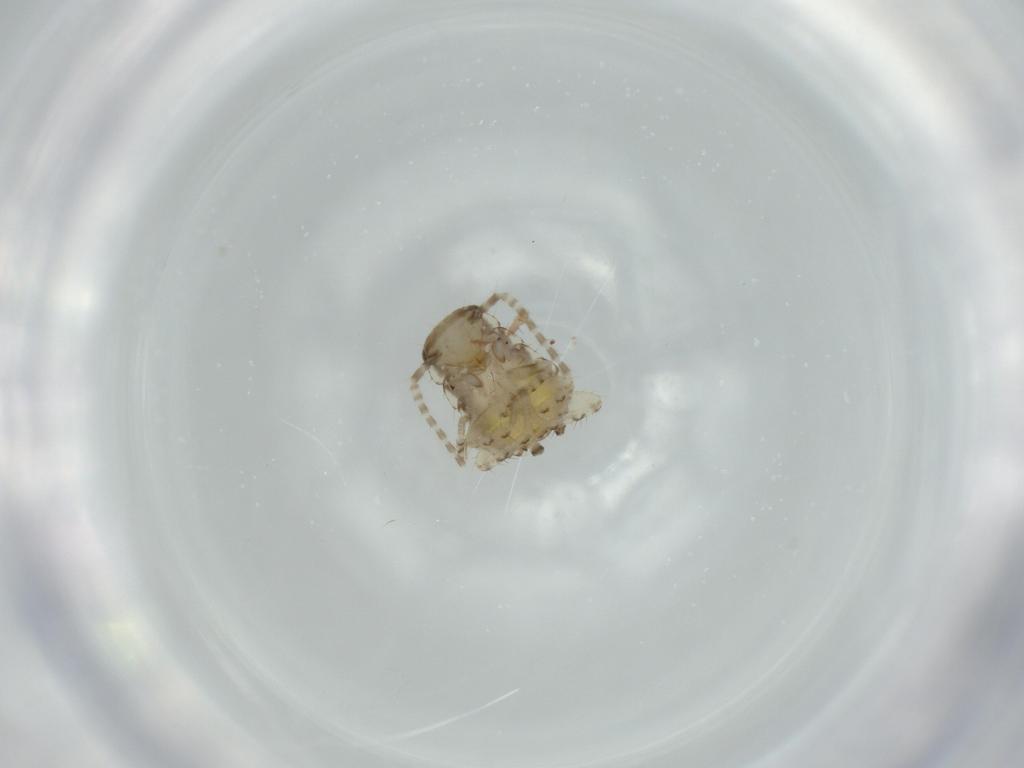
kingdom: Animalia
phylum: Arthropoda
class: Insecta
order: Blattodea
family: Ectobiidae
